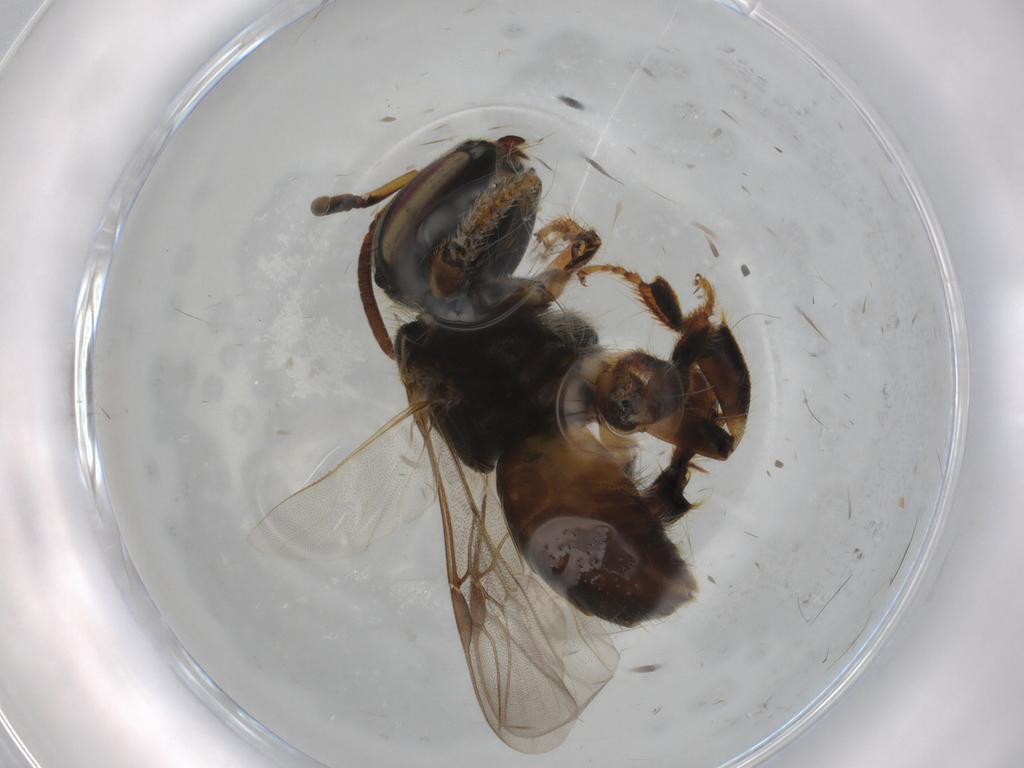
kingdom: Animalia
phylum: Arthropoda
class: Insecta
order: Hymenoptera
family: Apidae
